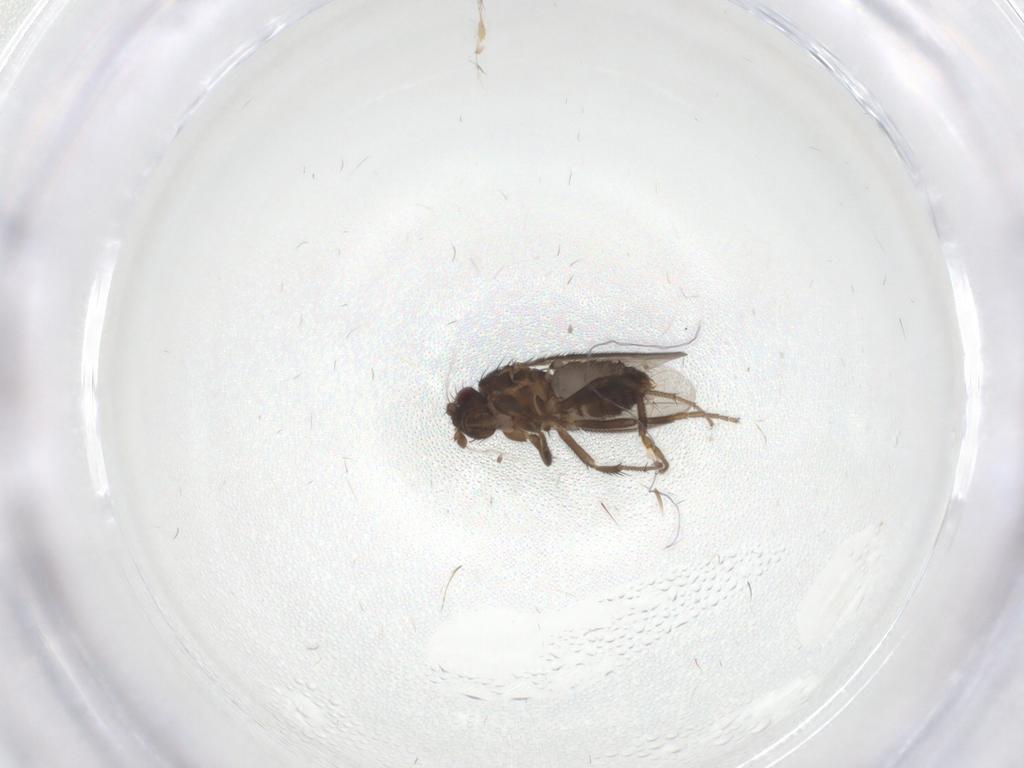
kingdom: Animalia
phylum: Arthropoda
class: Insecta
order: Diptera
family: Sphaeroceridae
